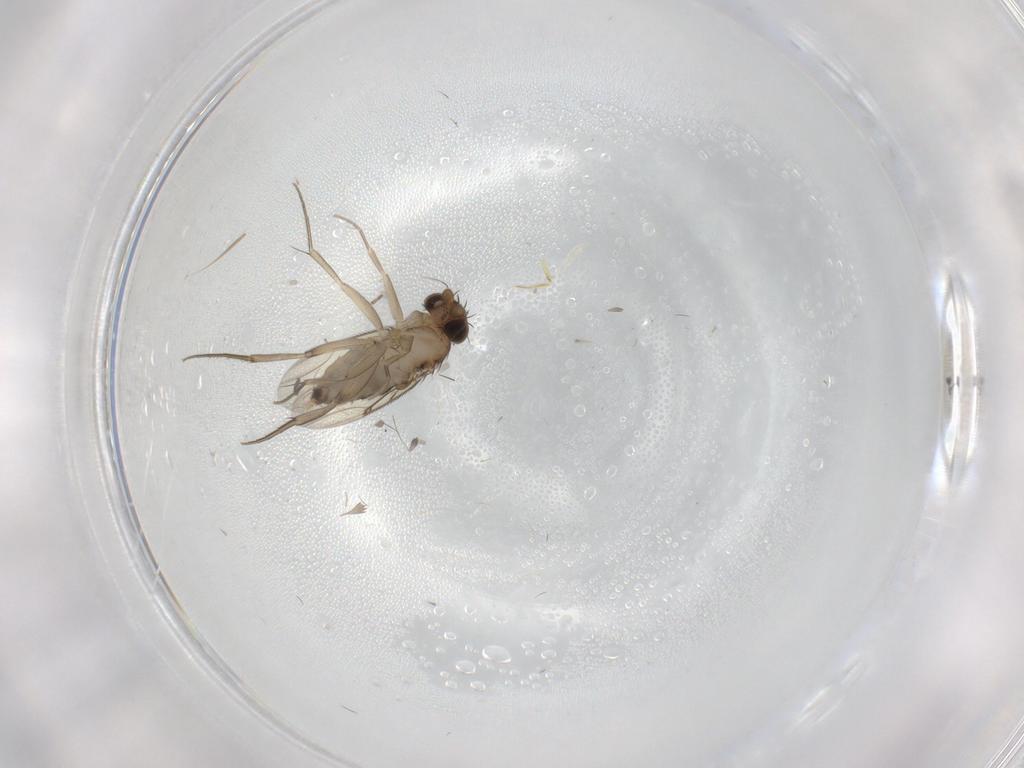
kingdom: Animalia
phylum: Arthropoda
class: Insecta
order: Diptera
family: Phoridae
